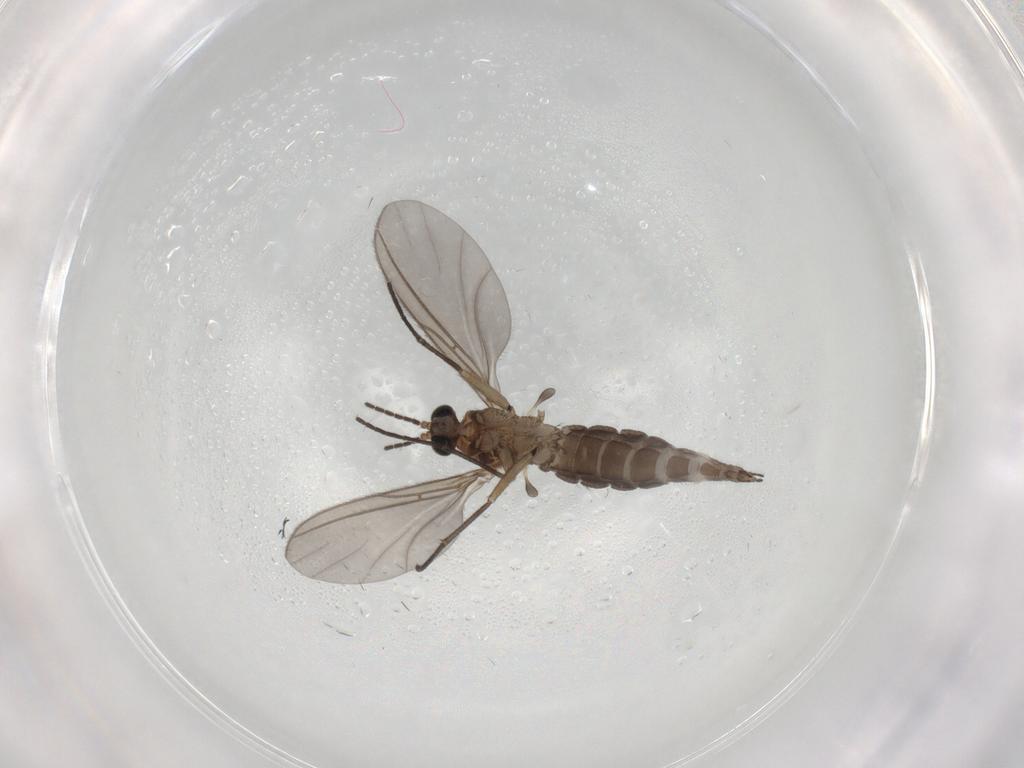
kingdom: Animalia
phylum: Arthropoda
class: Insecta
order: Diptera
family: Sciaridae
